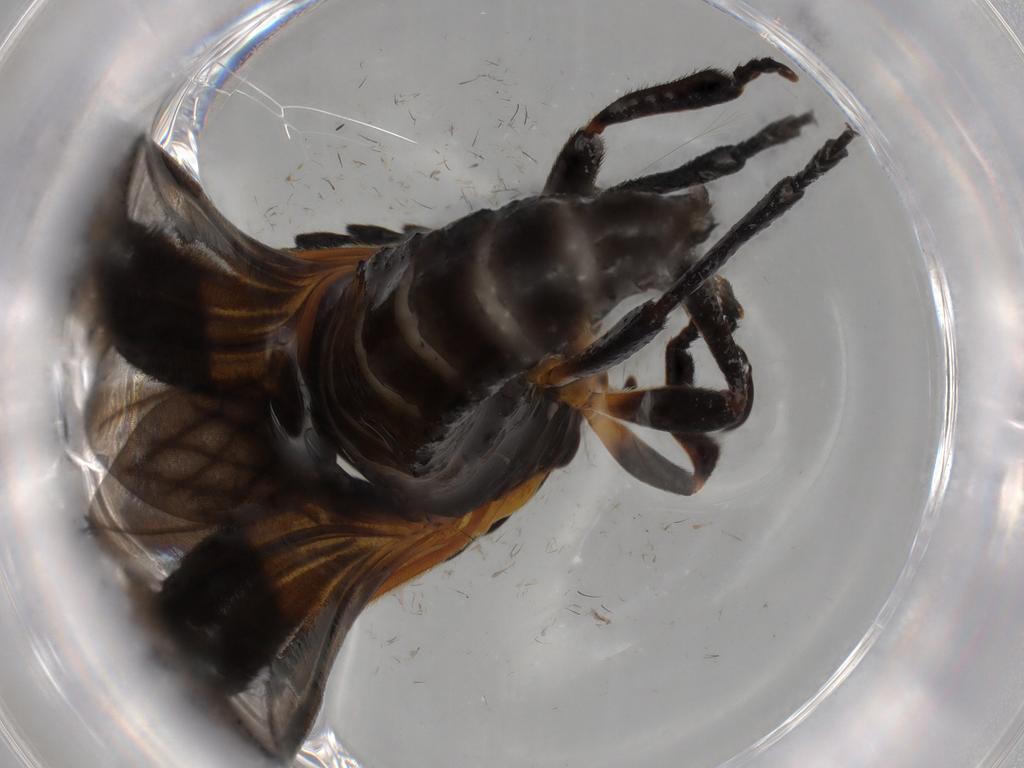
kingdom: Animalia
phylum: Arthropoda
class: Insecta
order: Coleoptera
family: Lycidae
